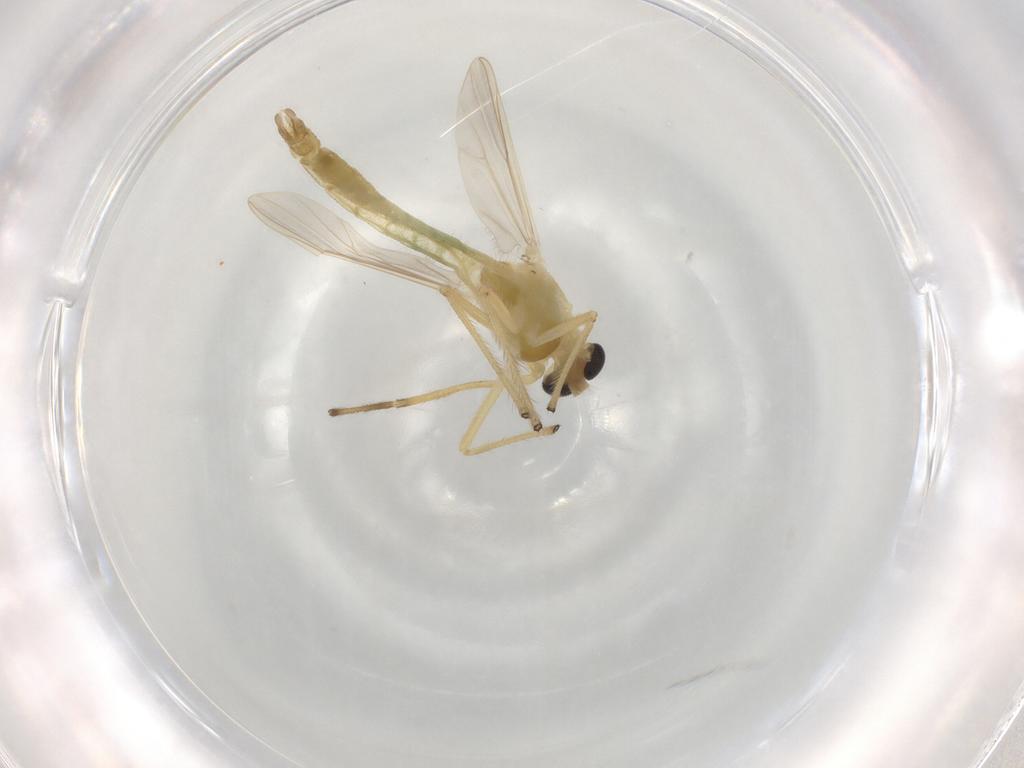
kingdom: Animalia
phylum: Arthropoda
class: Insecta
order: Diptera
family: Chironomidae
